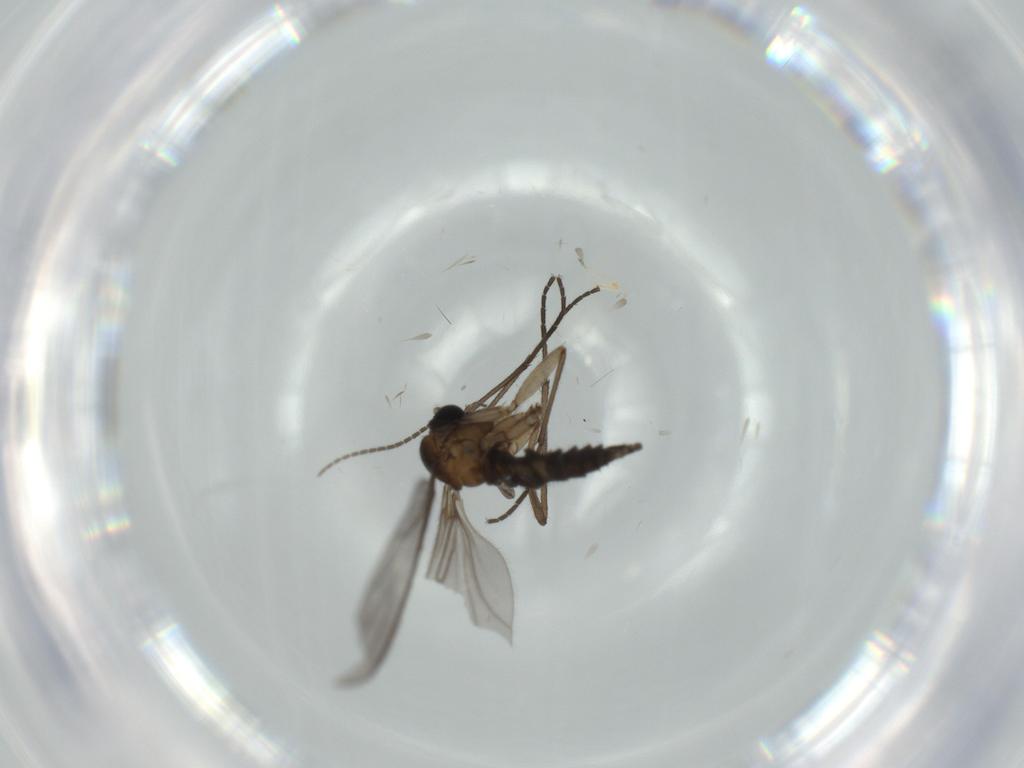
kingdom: Animalia
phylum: Arthropoda
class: Insecta
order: Diptera
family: Sciaridae
